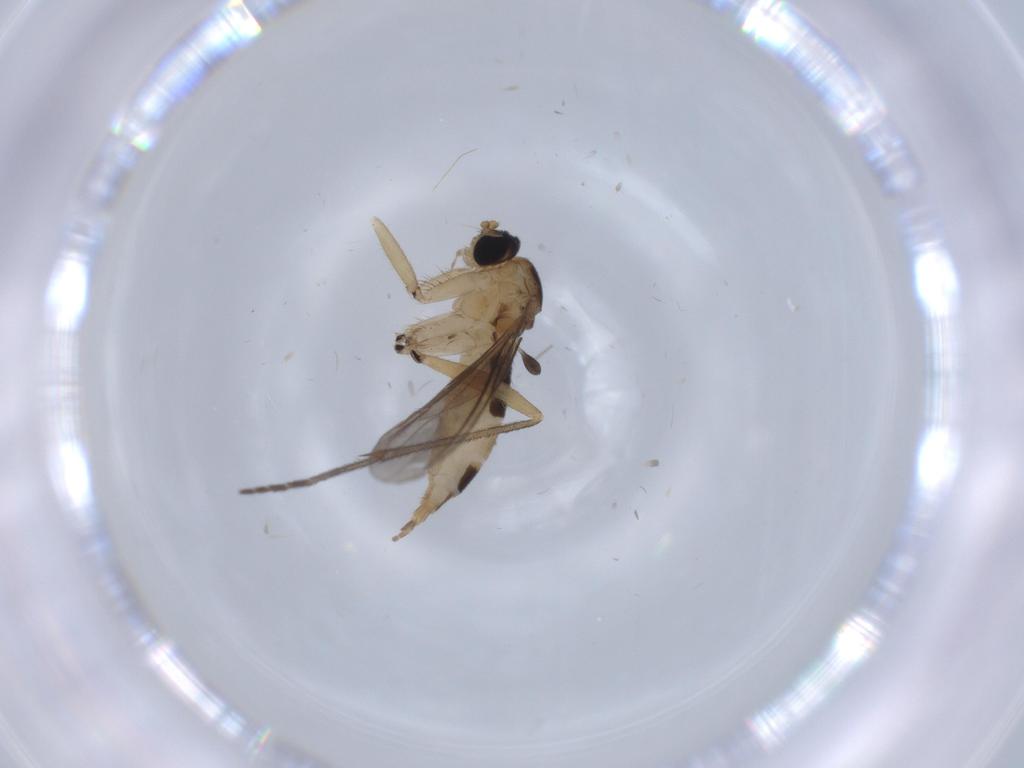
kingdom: Animalia
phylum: Arthropoda
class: Insecta
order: Diptera
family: Sciaridae
